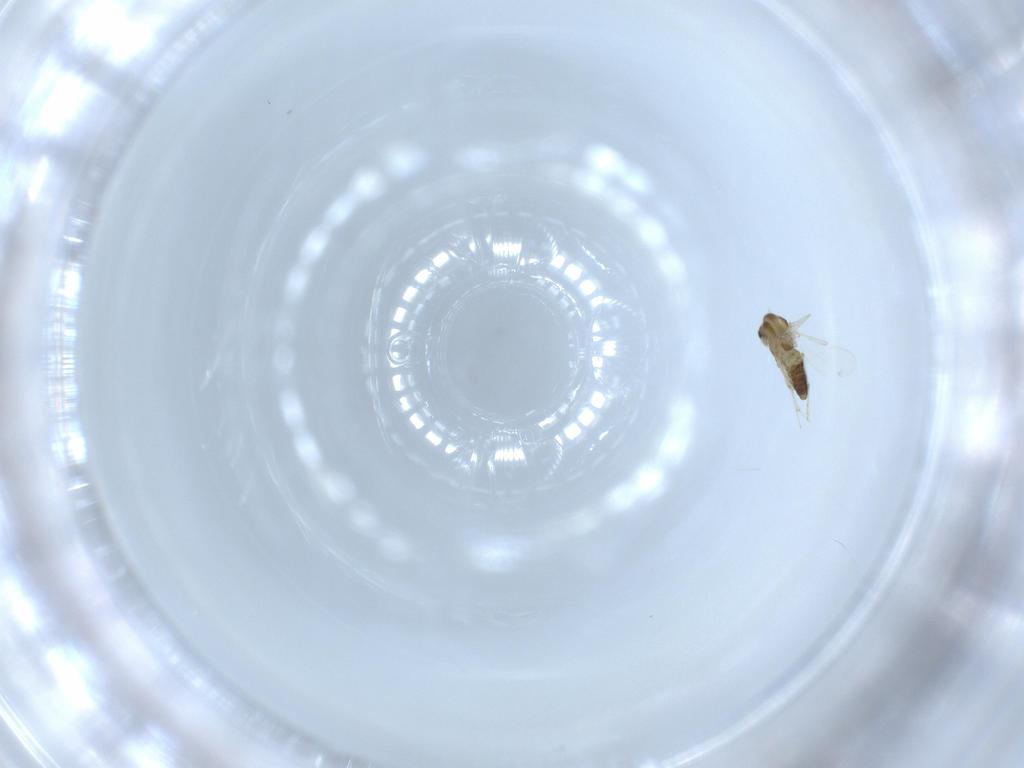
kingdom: Animalia
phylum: Arthropoda
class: Insecta
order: Diptera
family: Chironomidae
